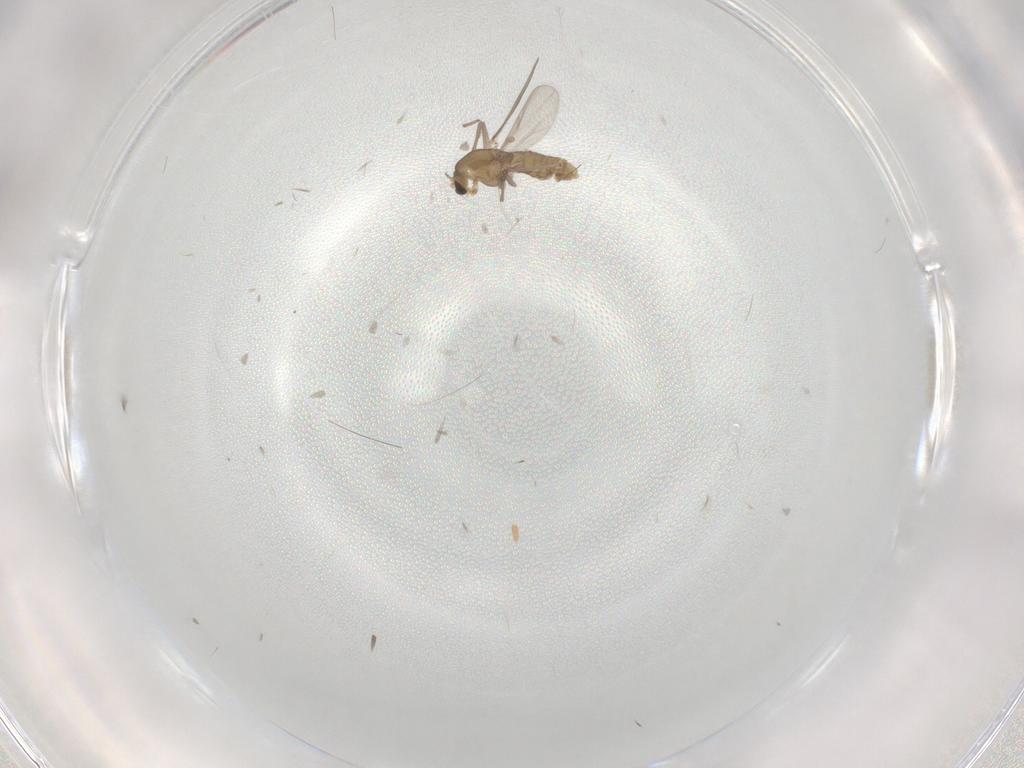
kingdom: Animalia
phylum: Arthropoda
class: Insecta
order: Diptera
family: Chironomidae
